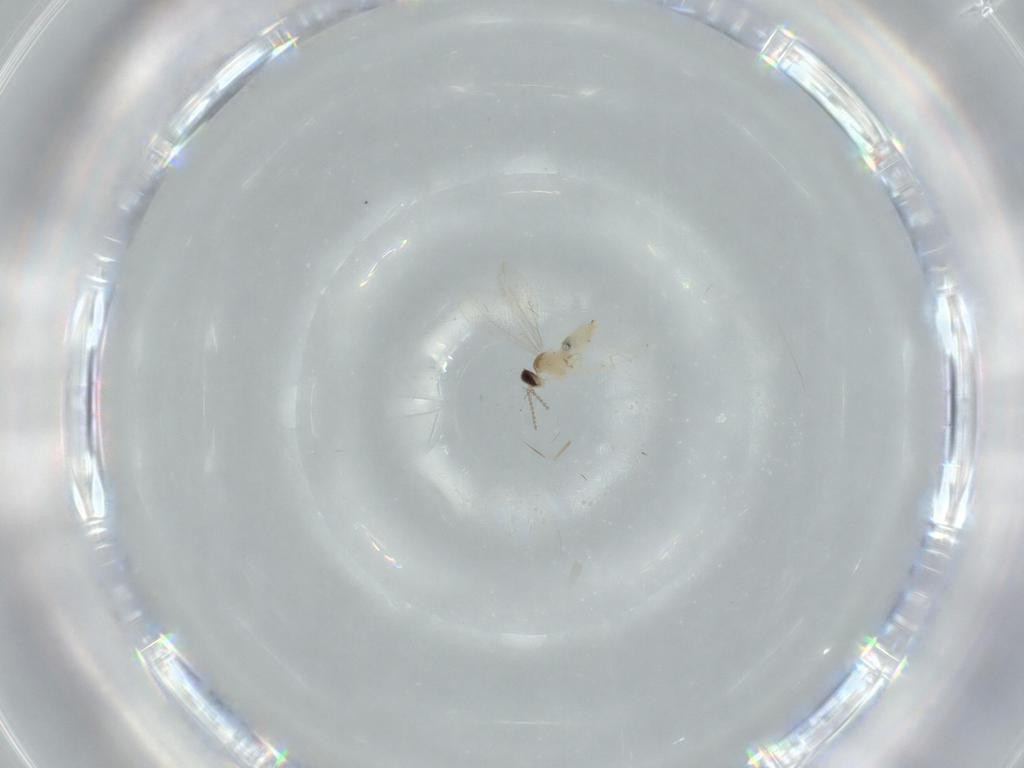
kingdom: Animalia
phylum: Arthropoda
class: Insecta
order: Diptera
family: Cecidomyiidae
